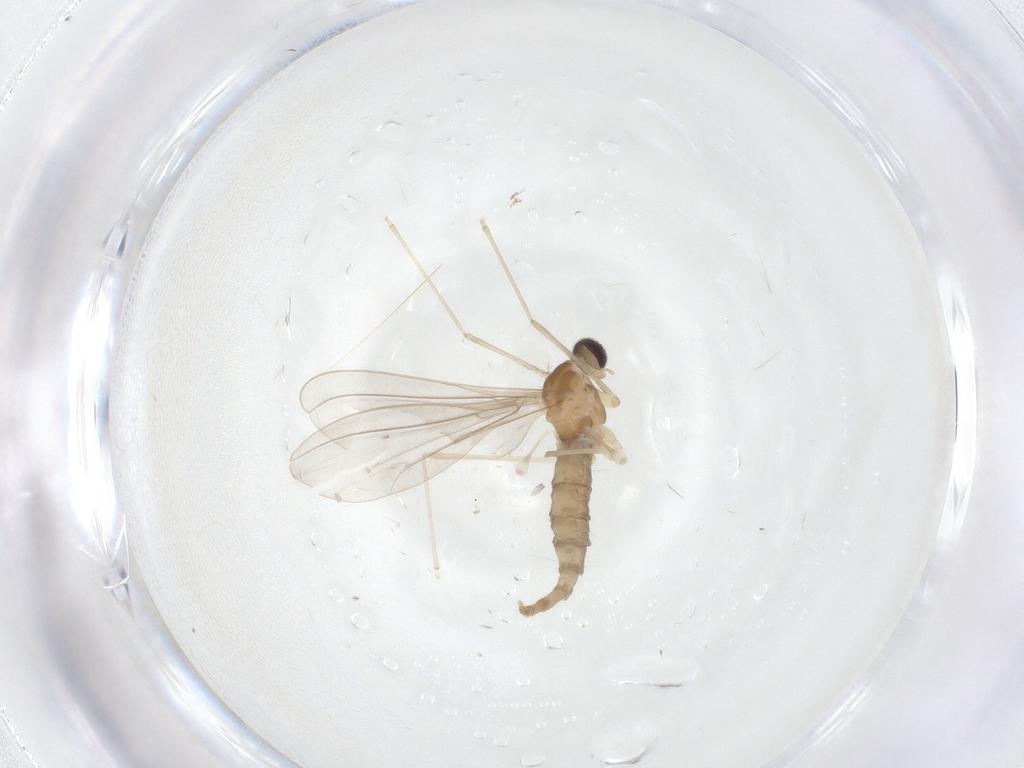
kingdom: Animalia
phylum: Arthropoda
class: Insecta
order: Diptera
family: Cecidomyiidae
